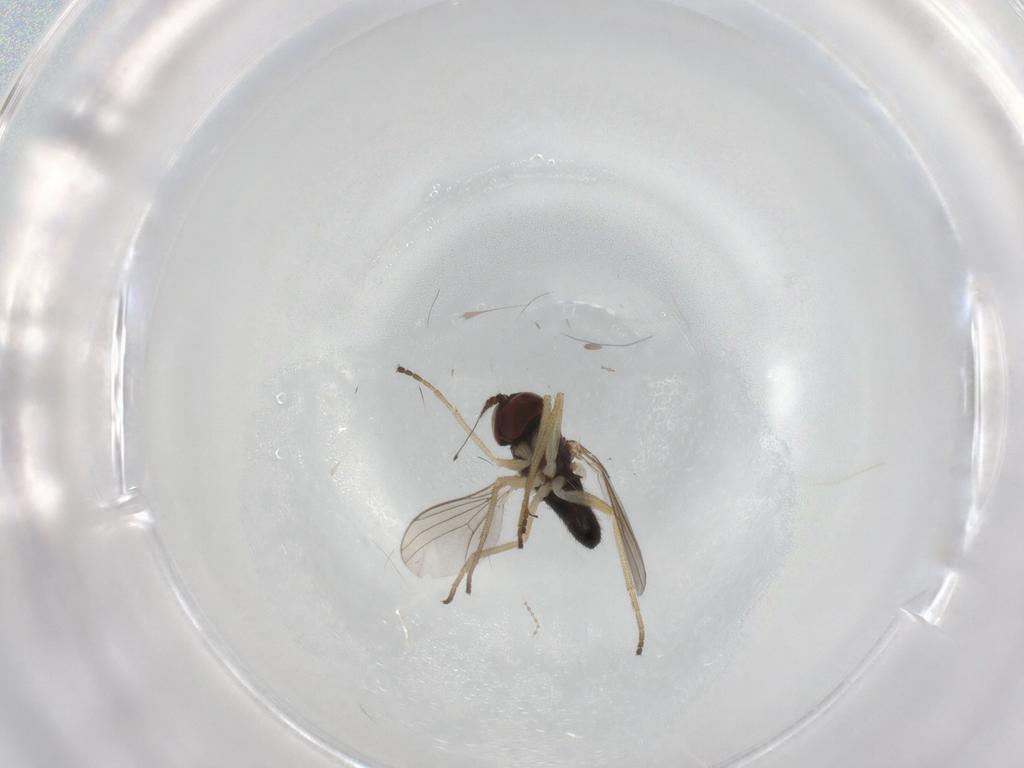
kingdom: Animalia
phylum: Arthropoda
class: Insecta
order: Diptera
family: Dolichopodidae
